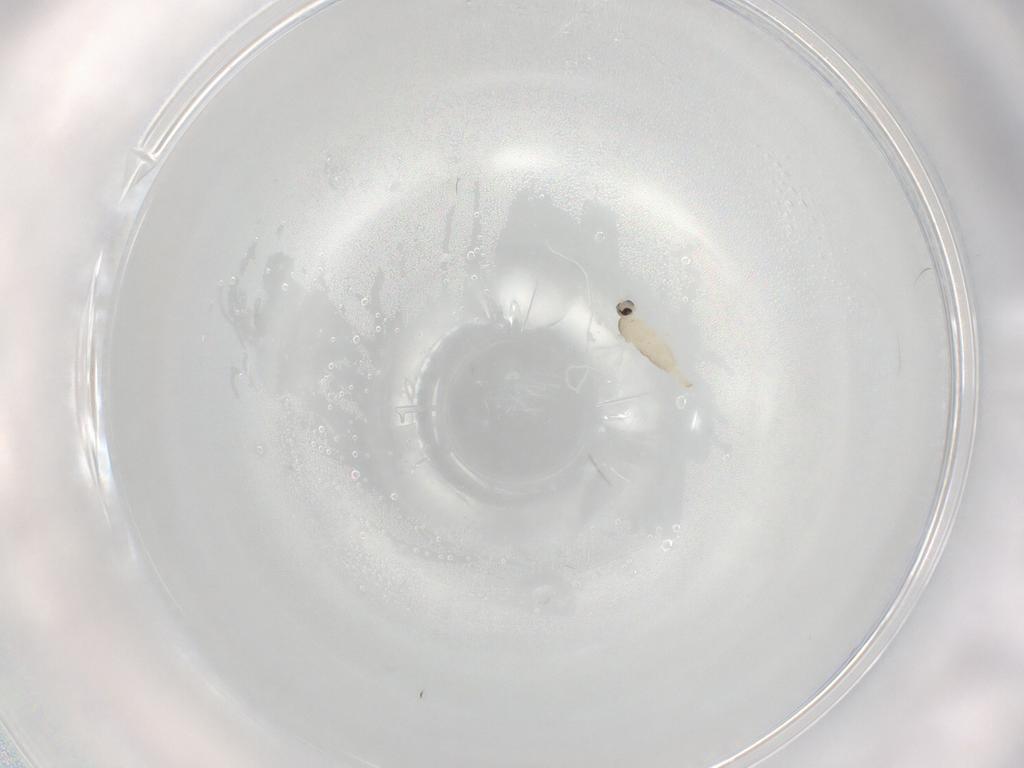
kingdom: Animalia
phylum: Arthropoda
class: Insecta
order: Diptera
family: Cecidomyiidae
